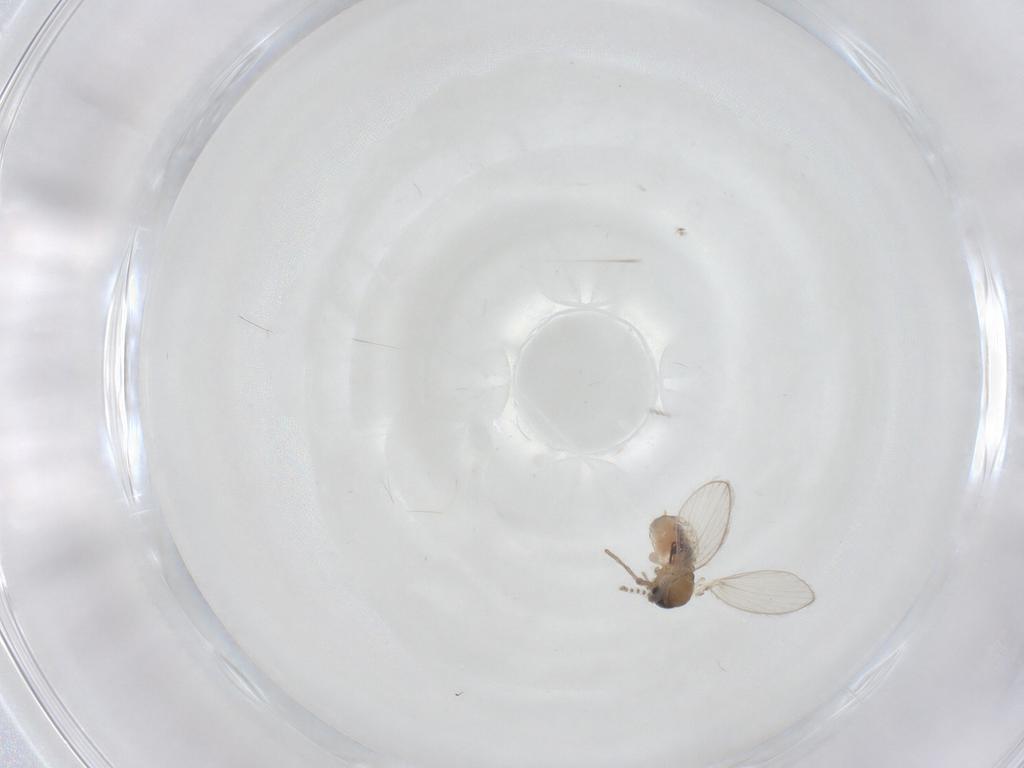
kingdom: Animalia
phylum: Arthropoda
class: Insecta
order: Diptera
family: Psychodidae
